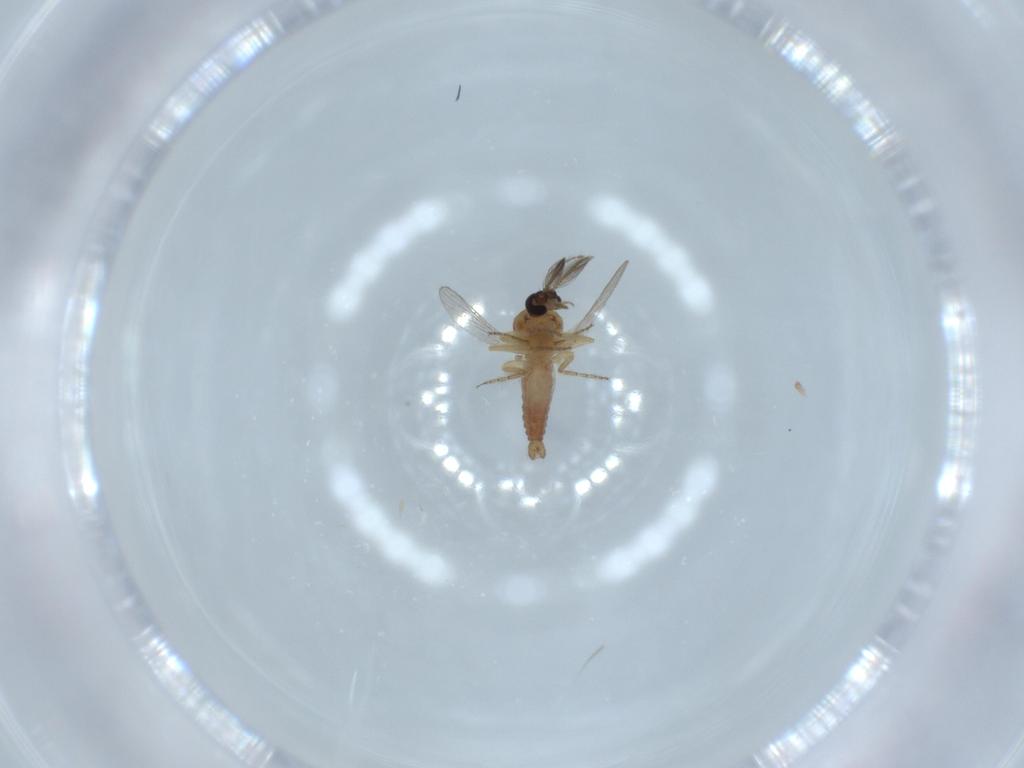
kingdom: Animalia
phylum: Arthropoda
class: Insecta
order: Diptera
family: Ceratopogonidae
